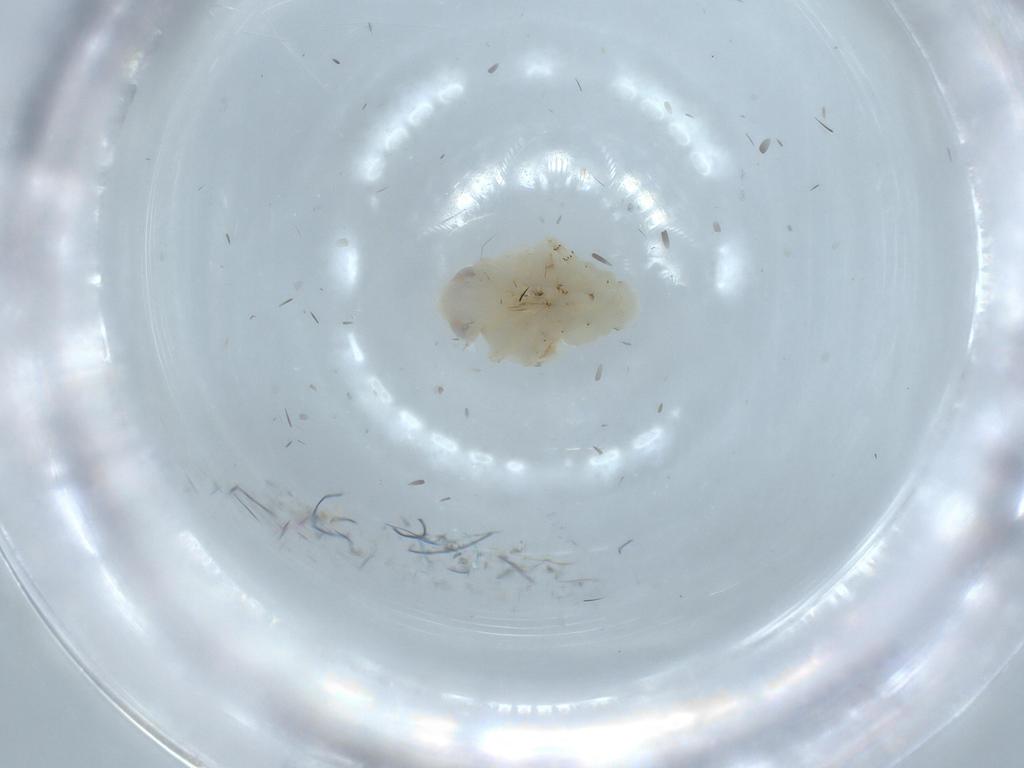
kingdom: Animalia
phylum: Arthropoda
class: Insecta
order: Hemiptera
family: Nogodinidae
